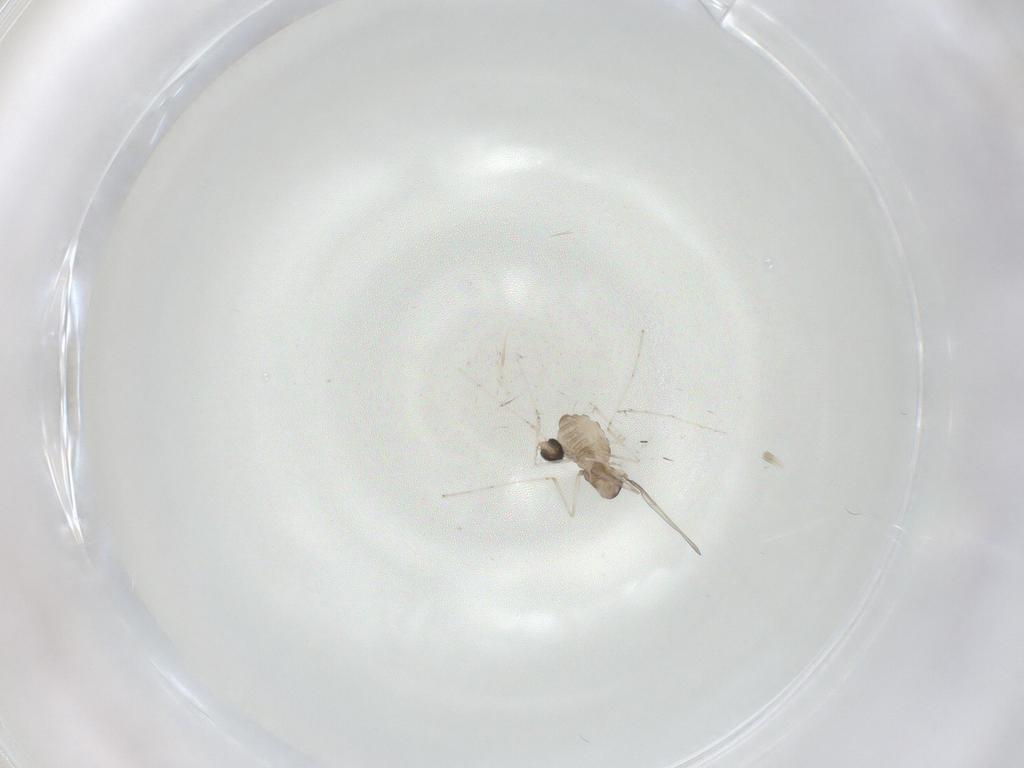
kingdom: Animalia
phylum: Arthropoda
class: Insecta
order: Diptera
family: Cecidomyiidae
